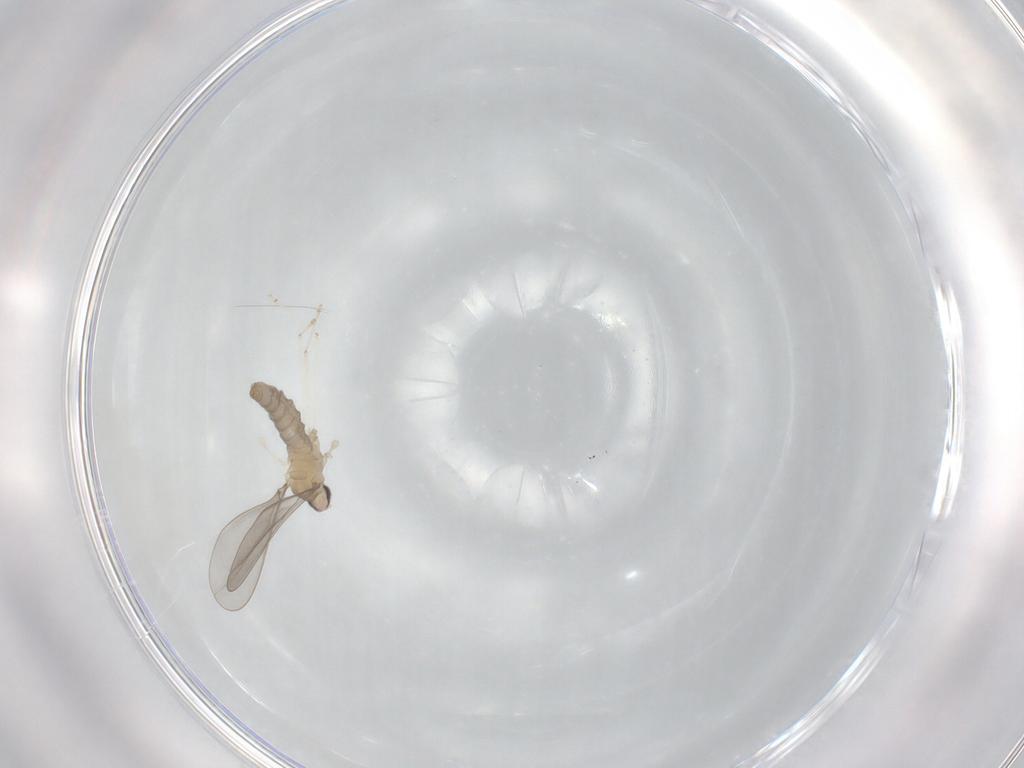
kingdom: Animalia
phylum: Arthropoda
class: Insecta
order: Diptera
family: Cecidomyiidae
